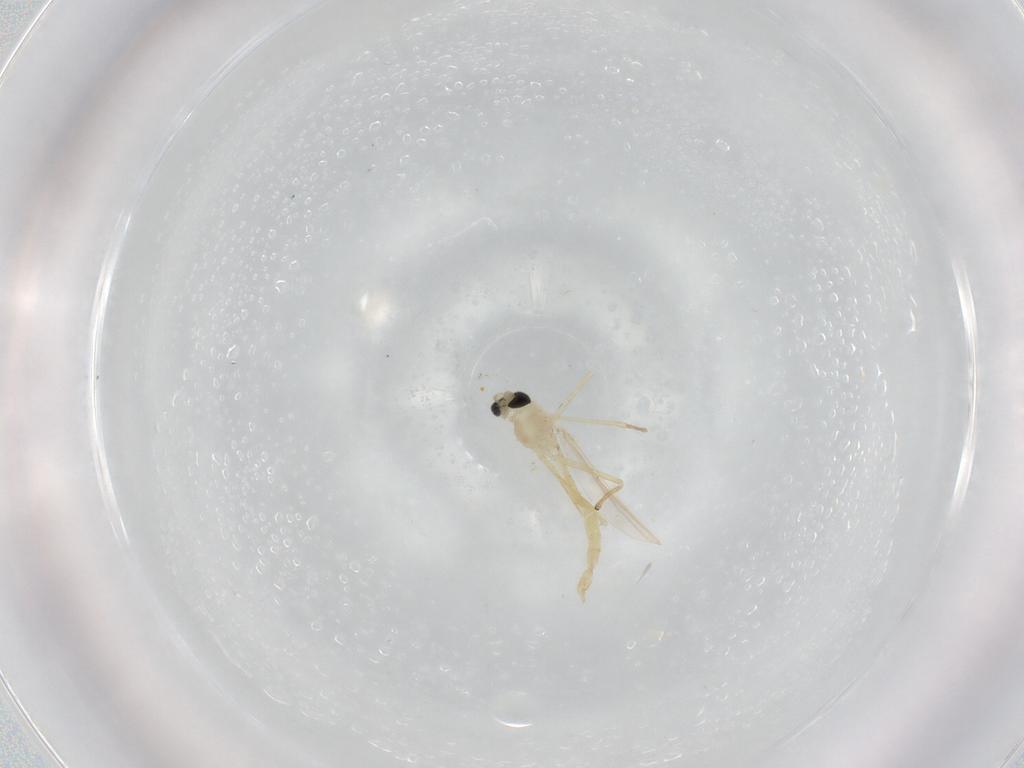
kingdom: Animalia
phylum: Arthropoda
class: Insecta
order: Diptera
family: Chironomidae
